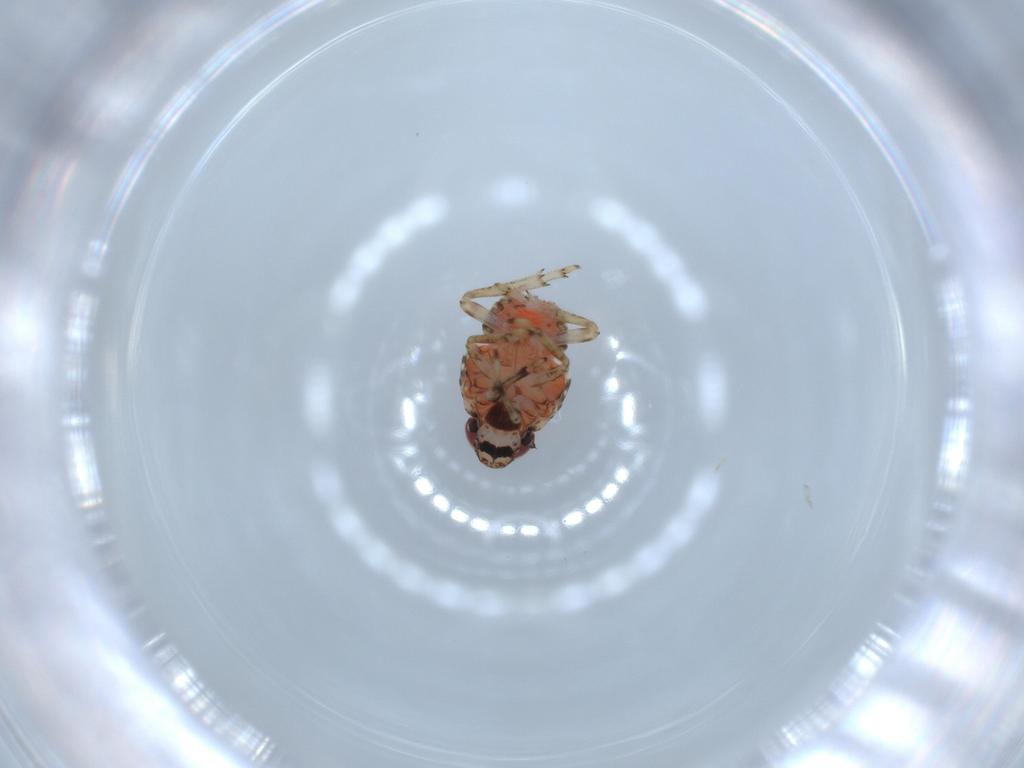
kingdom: Animalia
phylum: Arthropoda
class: Insecta
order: Hemiptera
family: Issidae
